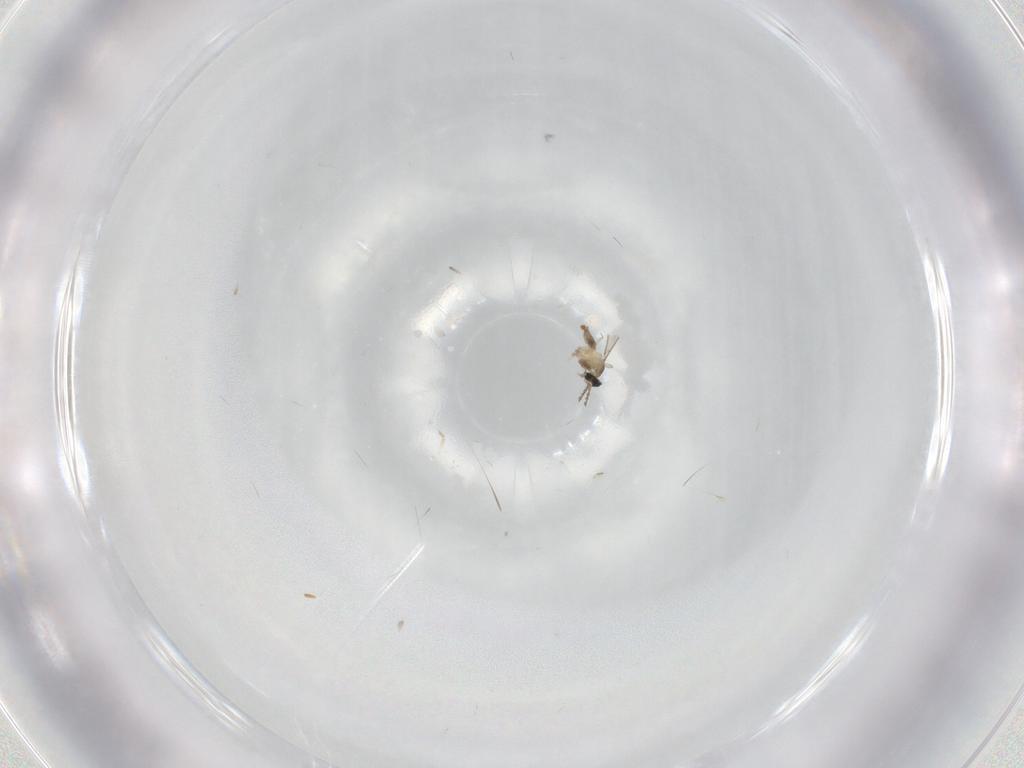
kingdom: Animalia
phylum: Arthropoda
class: Insecta
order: Diptera
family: Cecidomyiidae
